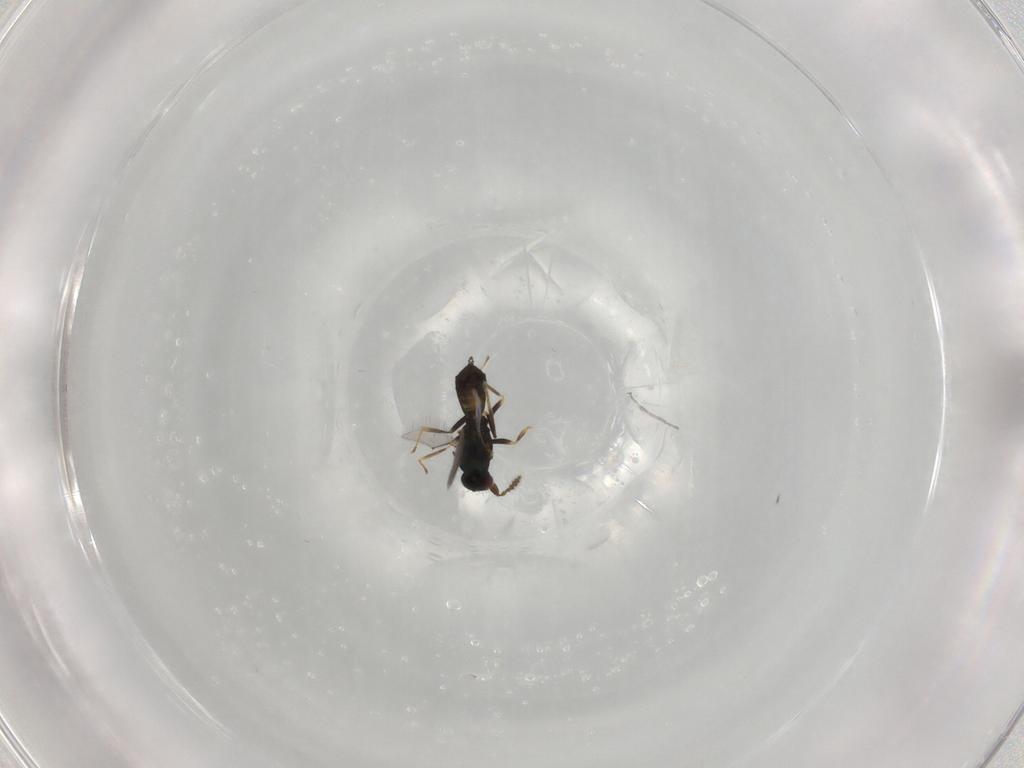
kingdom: Animalia
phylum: Arthropoda
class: Insecta
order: Hymenoptera
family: Eulophidae
